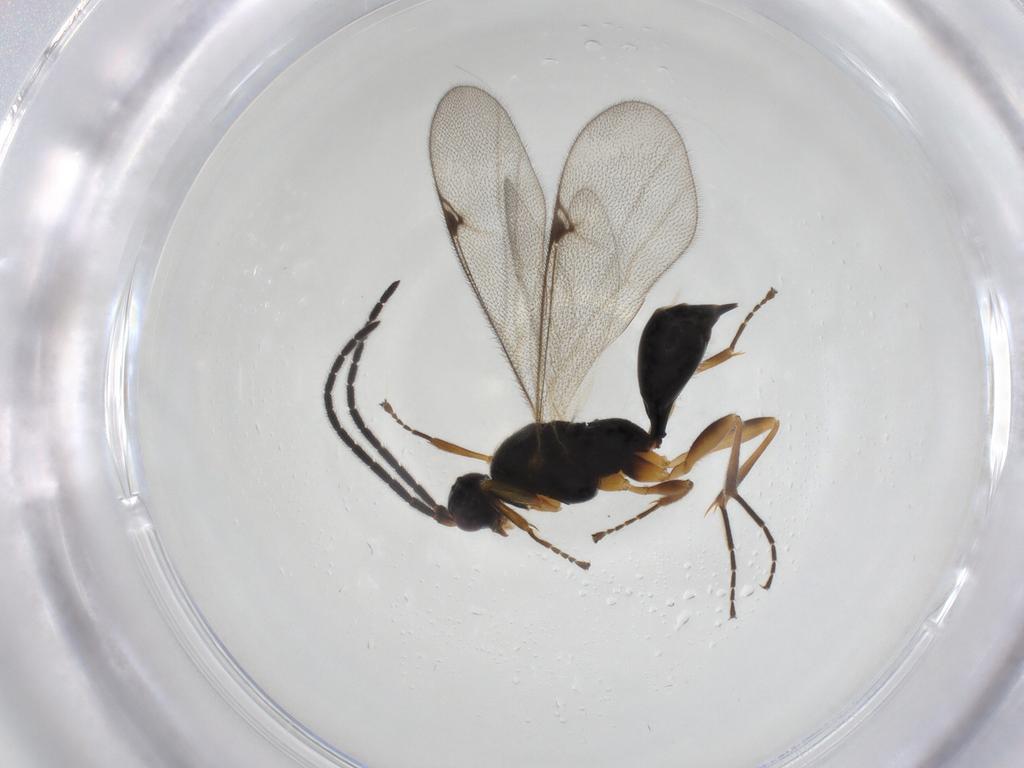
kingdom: Animalia
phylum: Arthropoda
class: Insecta
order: Hymenoptera
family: Proctotrupidae
